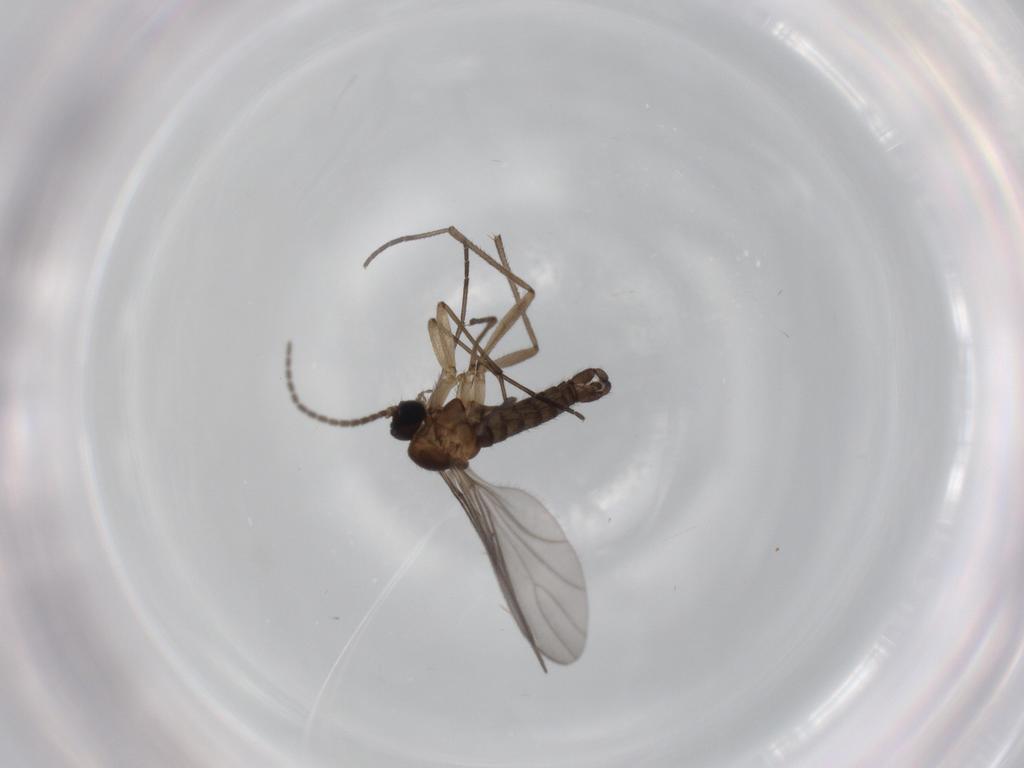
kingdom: Animalia
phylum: Arthropoda
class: Insecta
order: Diptera
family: Sciaridae
